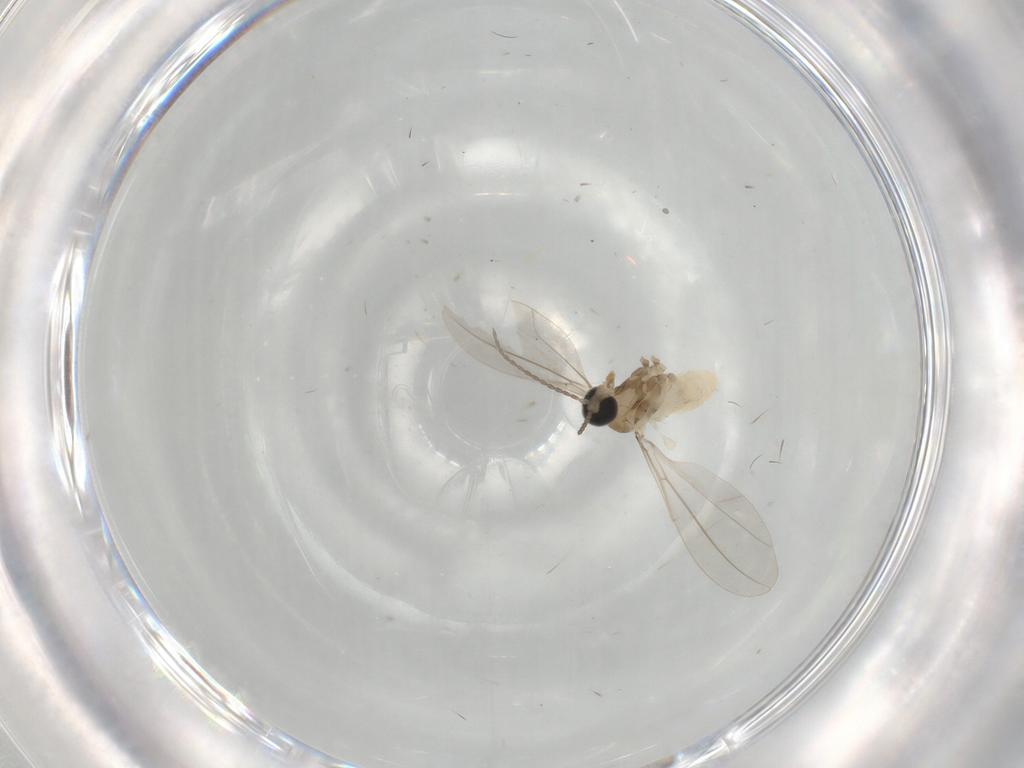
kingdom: Animalia
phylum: Arthropoda
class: Insecta
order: Diptera
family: Cecidomyiidae
